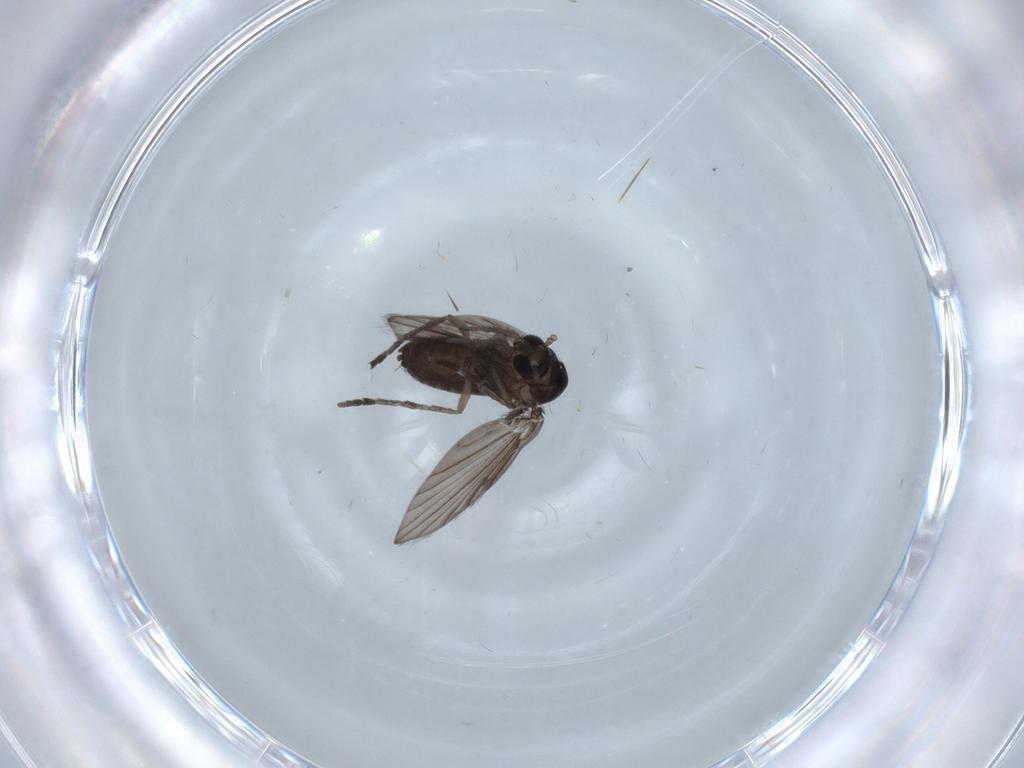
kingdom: Animalia
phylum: Arthropoda
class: Insecta
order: Diptera
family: Psychodidae
